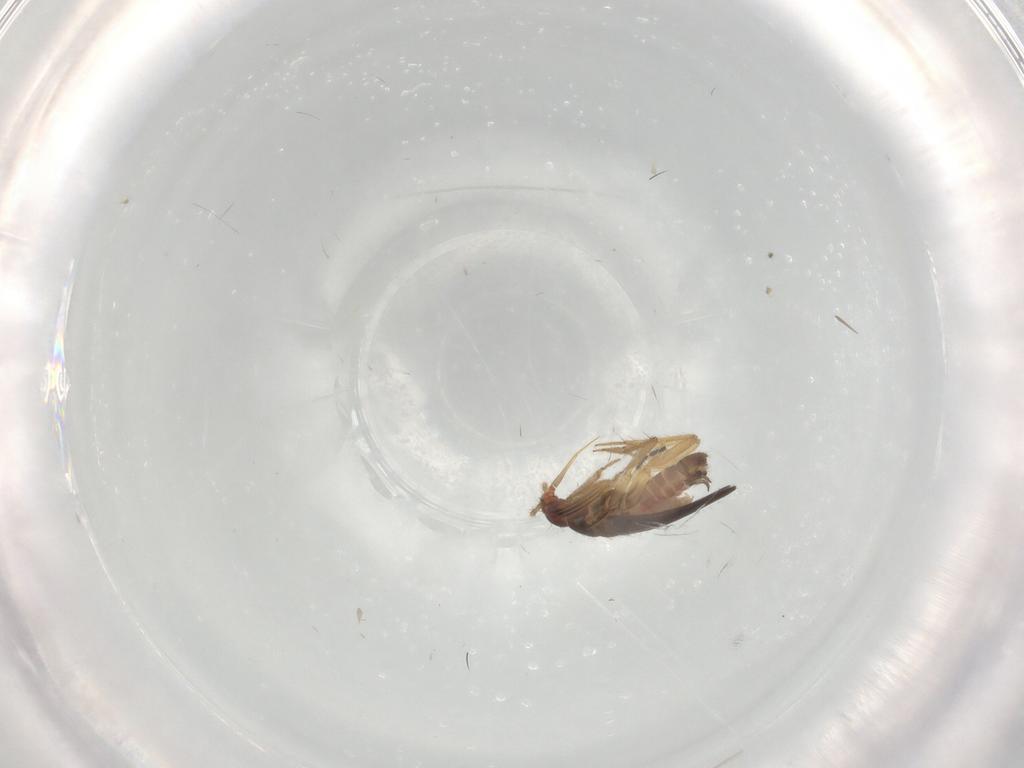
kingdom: Animalia
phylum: Arthropoda
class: Insecta
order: Hemiptera
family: Ceratocombidae
